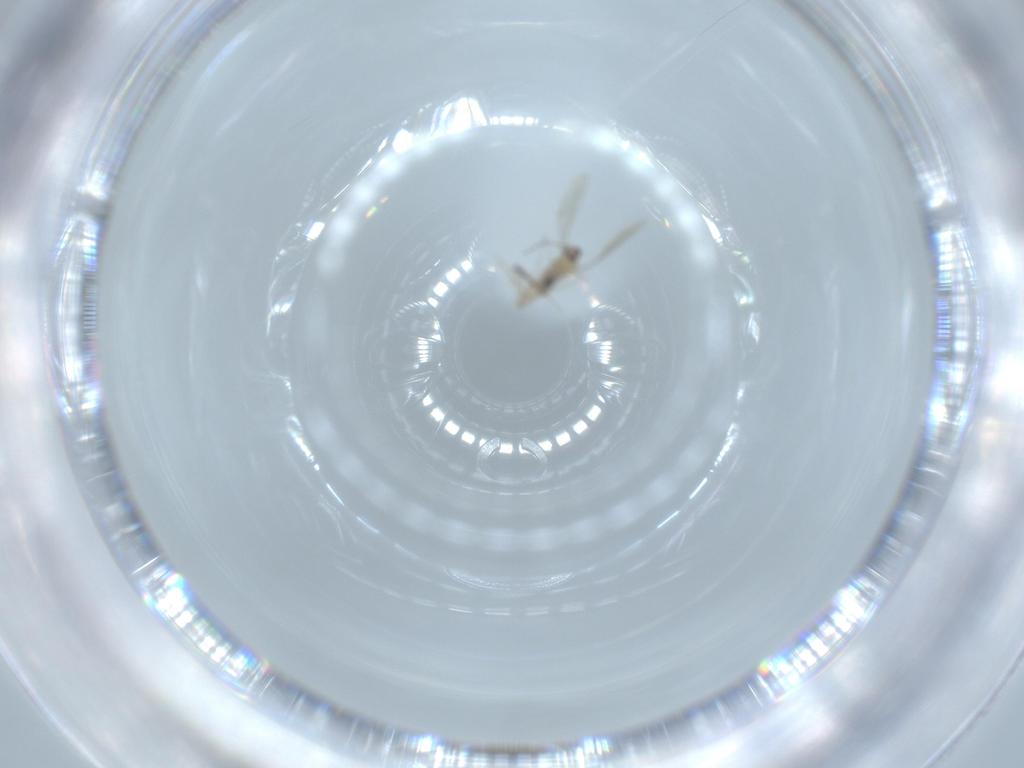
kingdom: Animalia
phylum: Arthropoda
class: Insecta
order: Diptera
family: Cecidomyiidae
